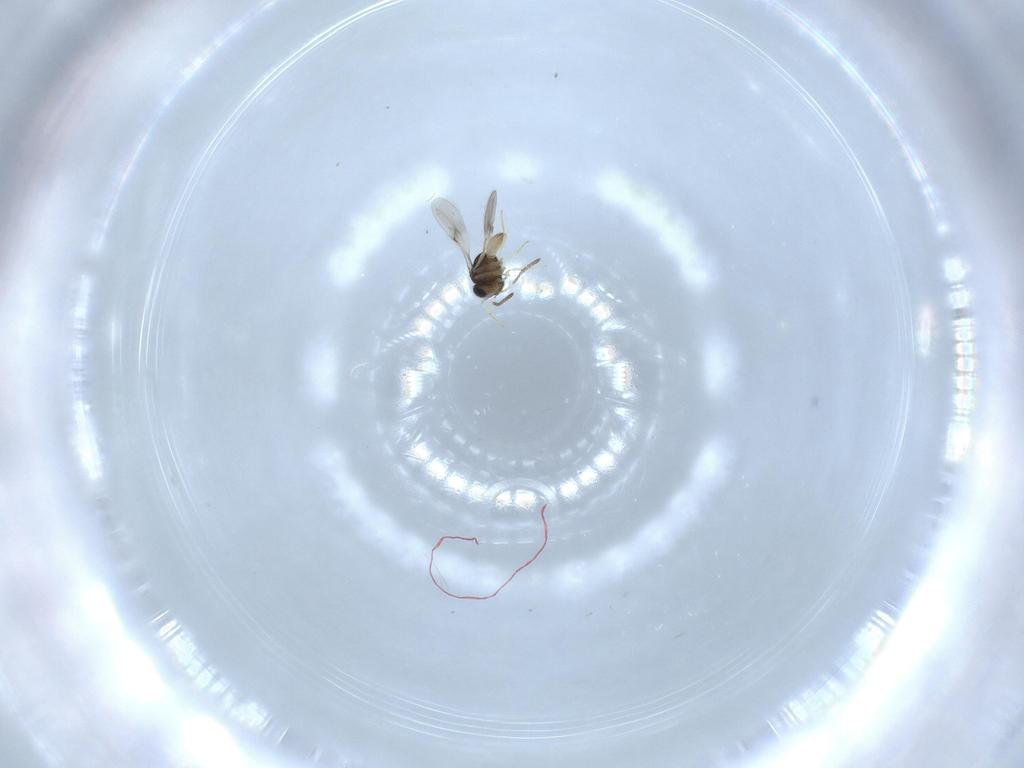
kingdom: Animalia
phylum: Arthropoda
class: Insecta
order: Hymenoptera
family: Scelionidae
